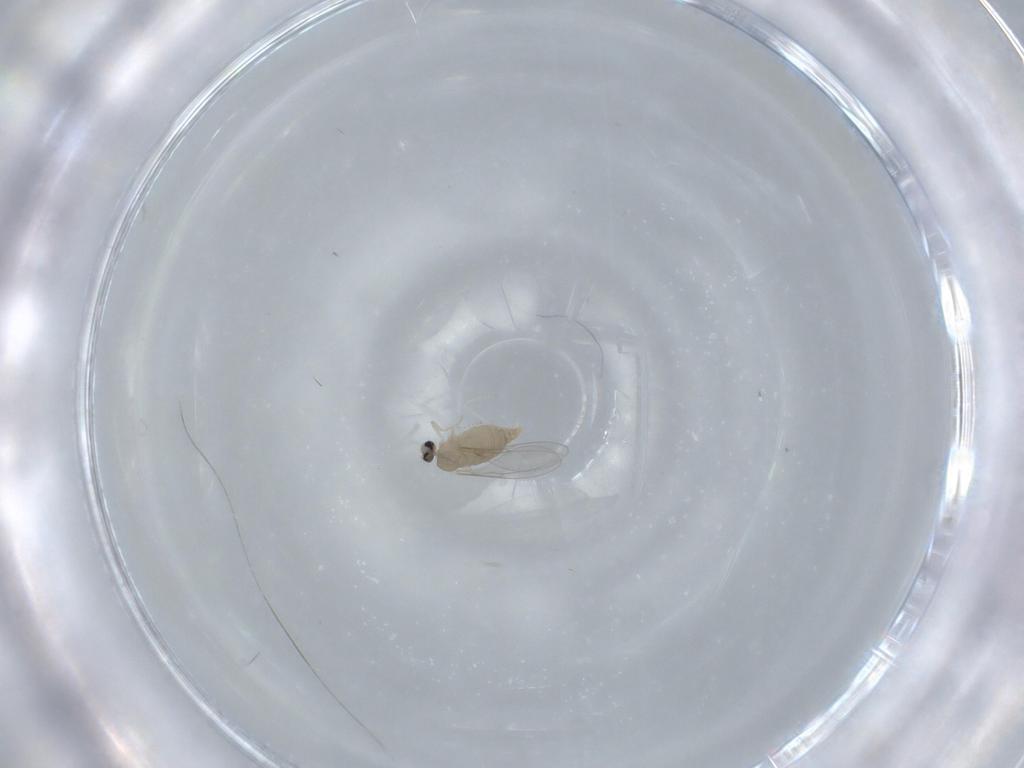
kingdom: Animalia
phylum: Arthropoda
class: Insecta
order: Diptera
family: Cecidomyiidae
